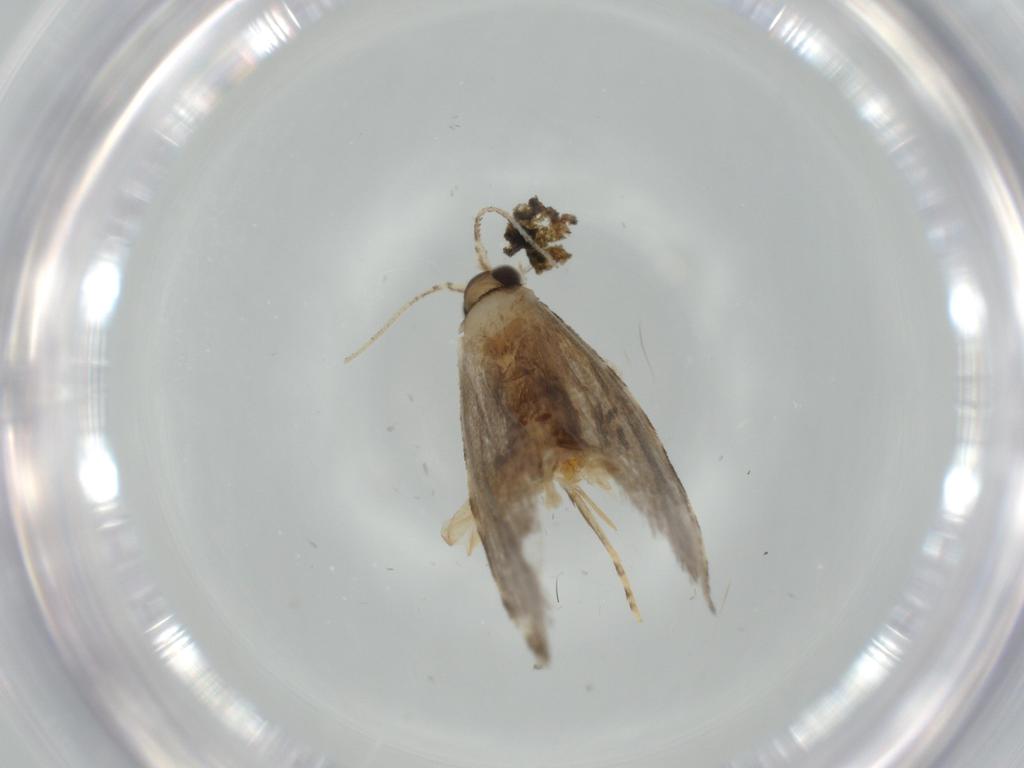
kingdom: Animalia
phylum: Arthropoda
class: Insecta
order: Lepidoptera
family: Tineidae
